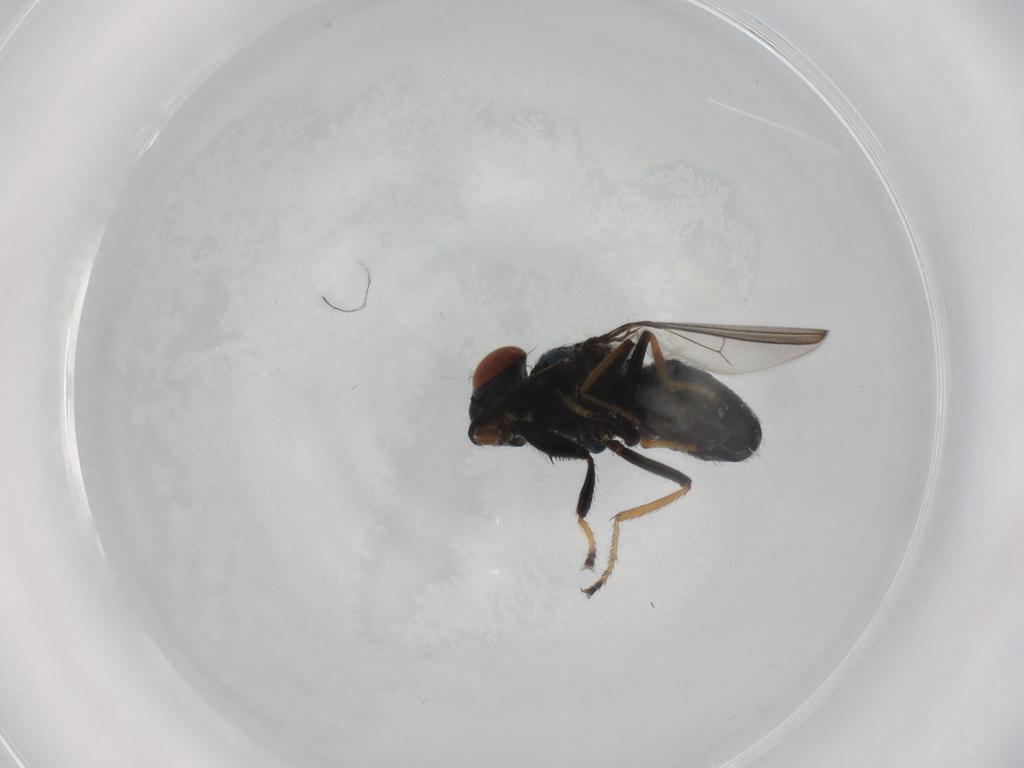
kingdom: Animalia
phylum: Arthropoda
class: Insecta
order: Diptera
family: Ephydridae
